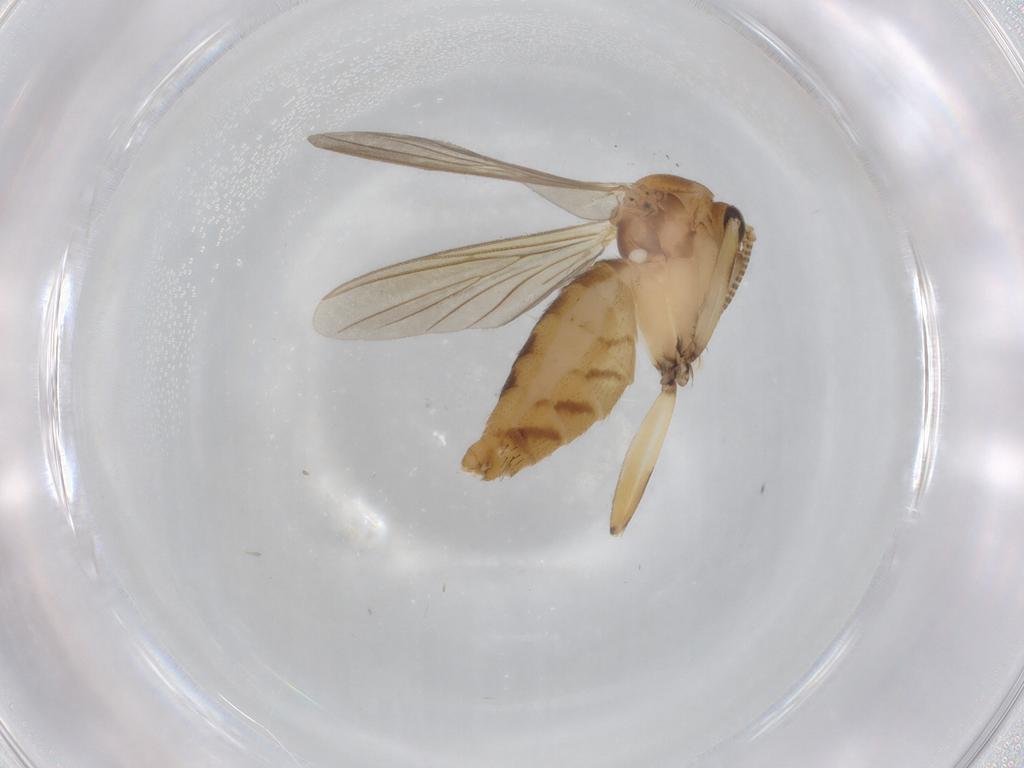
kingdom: Animalia
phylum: Arthropoda
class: Insecta
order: Diptera
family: Mycetophilidae
